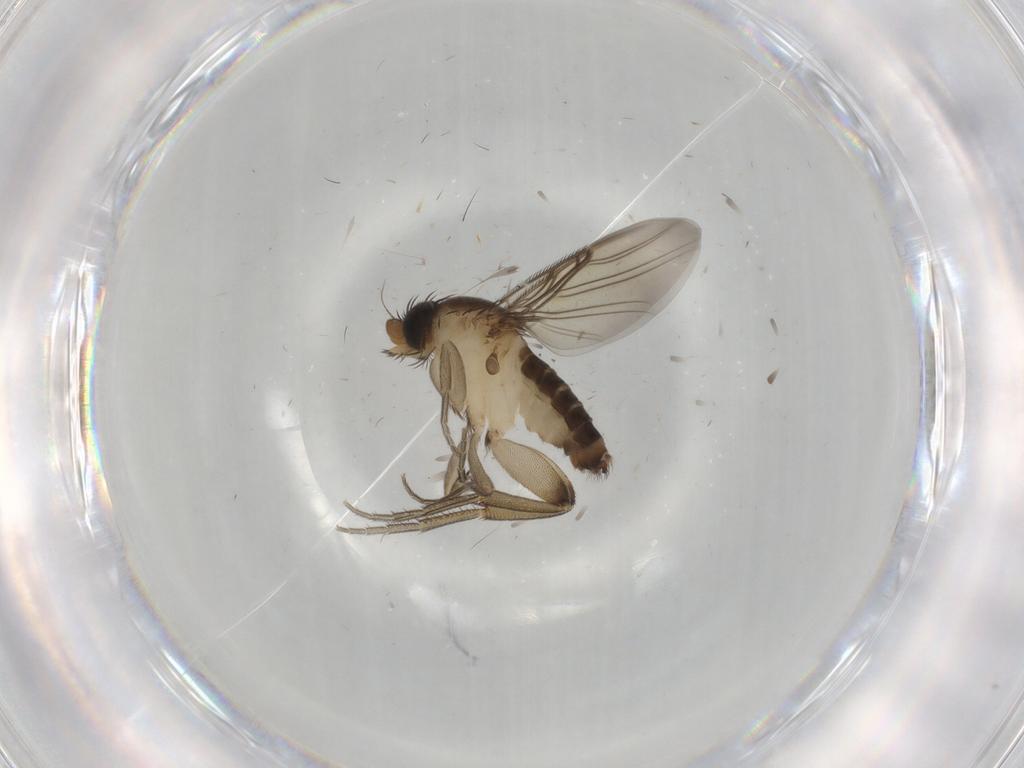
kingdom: Animalia
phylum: Arthropoda
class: Insecta
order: Diptera
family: Phoridae
